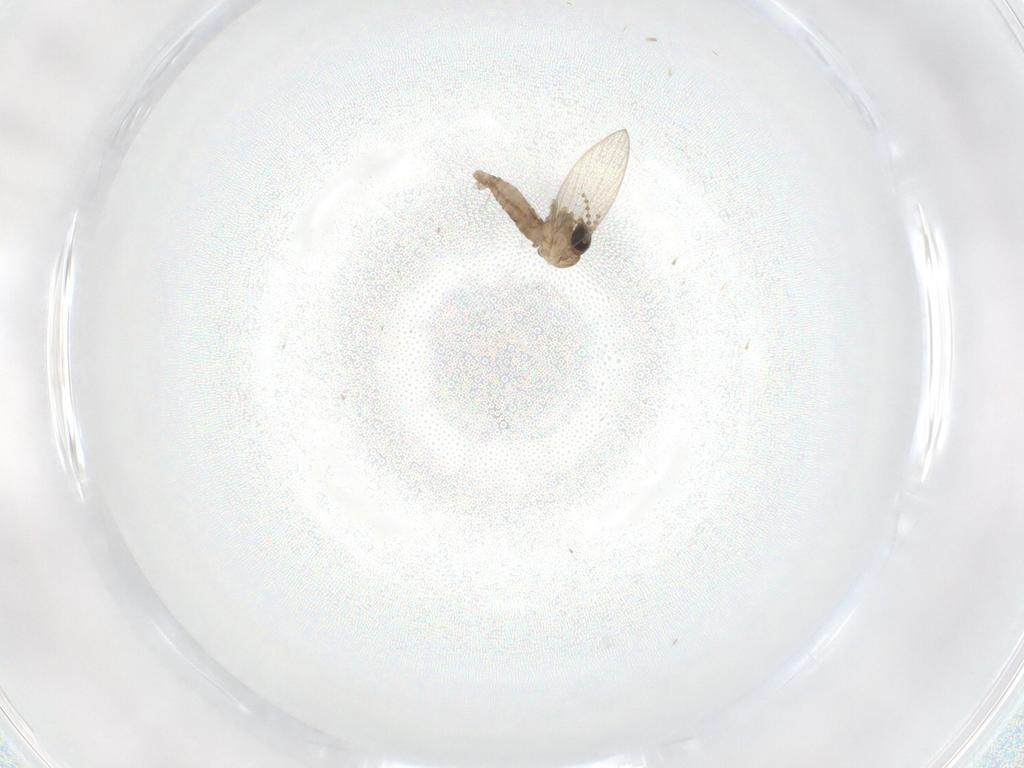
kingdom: Animalia
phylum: Arthropoda
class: Insecta
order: Diptera
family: Psychodidae
